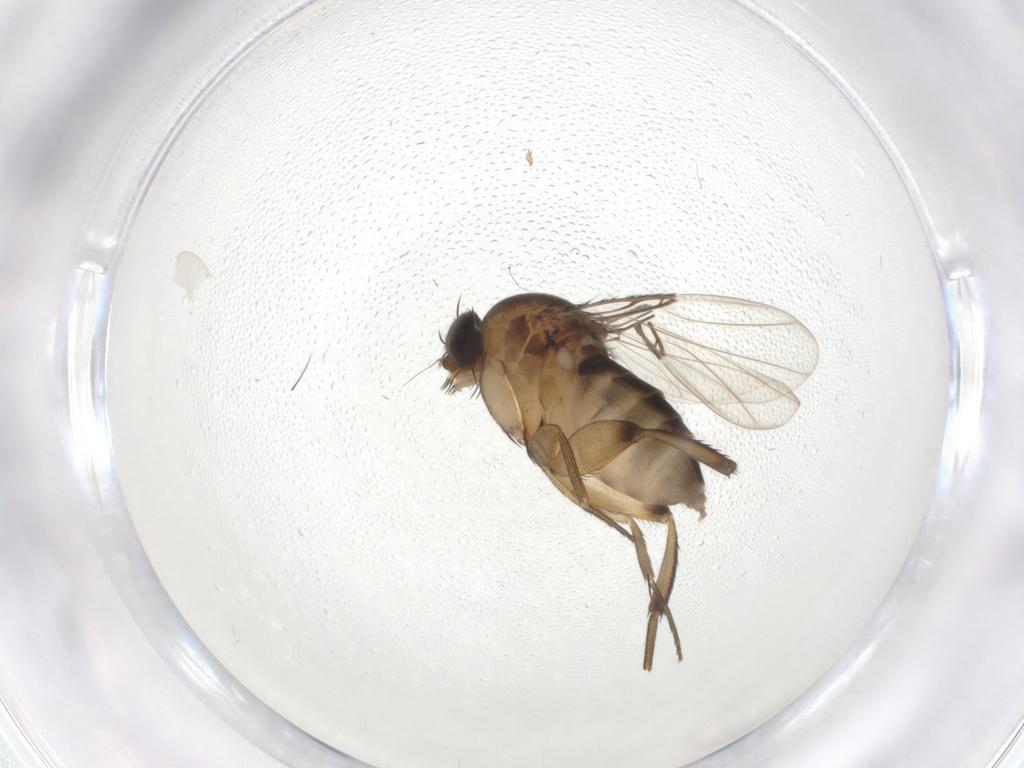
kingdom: Animalia
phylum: Arthropoda
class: Insecta
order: Diptera
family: Phoridae
